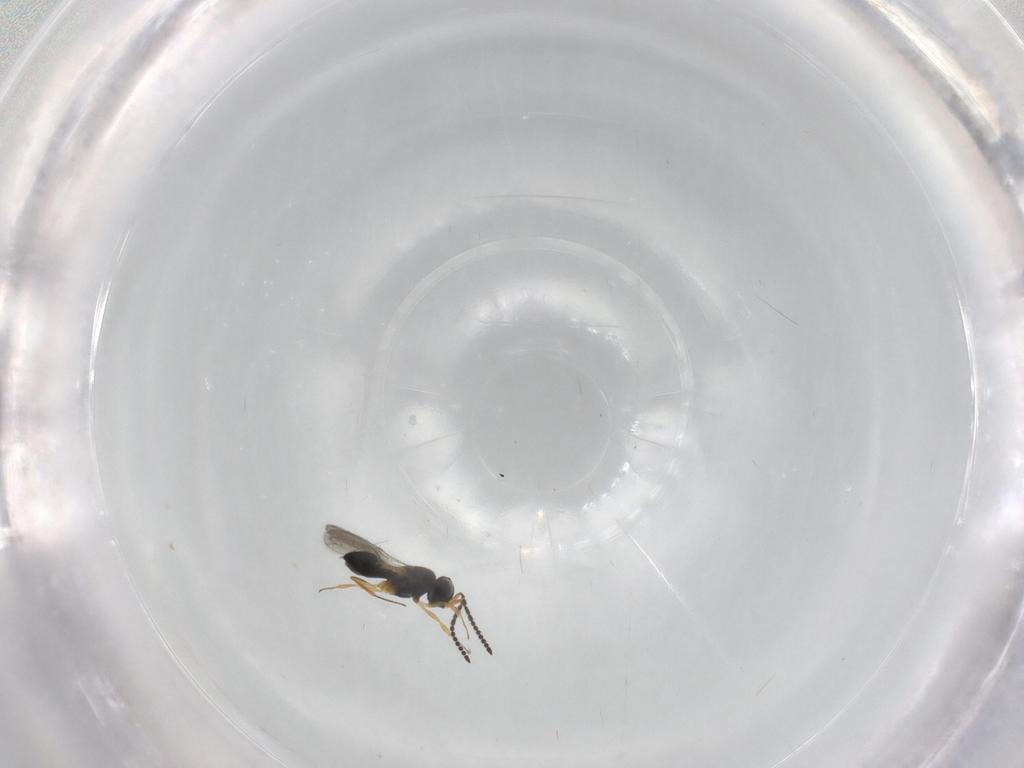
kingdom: Animalia
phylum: Arthropoda
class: Insecta
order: Hymenoptera
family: Scelionidae
